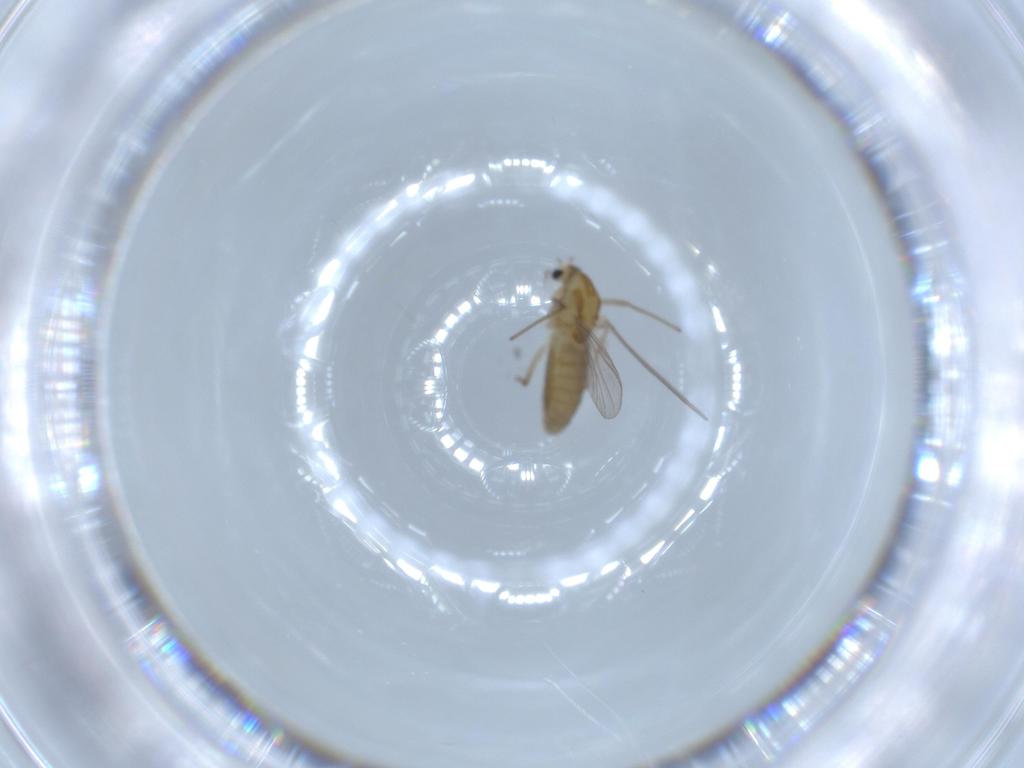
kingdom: Animalia
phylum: Arthropoda
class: Insecta
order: Diptera
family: Chironomidae
